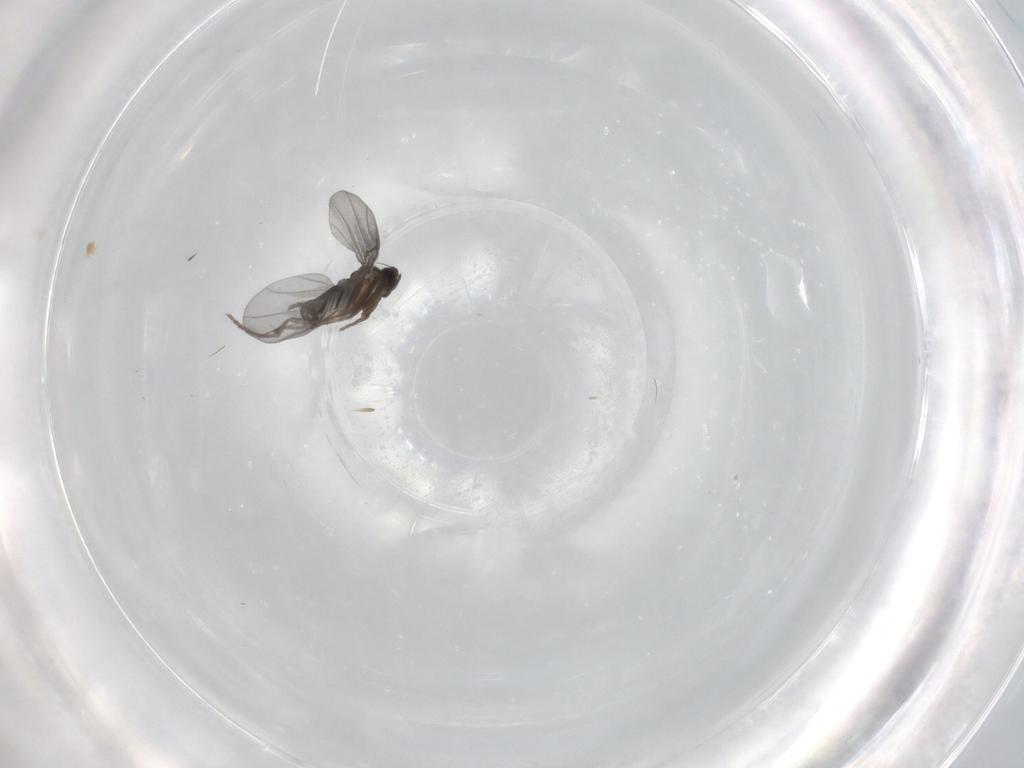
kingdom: Animalia
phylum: Arthropoda
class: Insecta
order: Diptera
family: Phoridae
